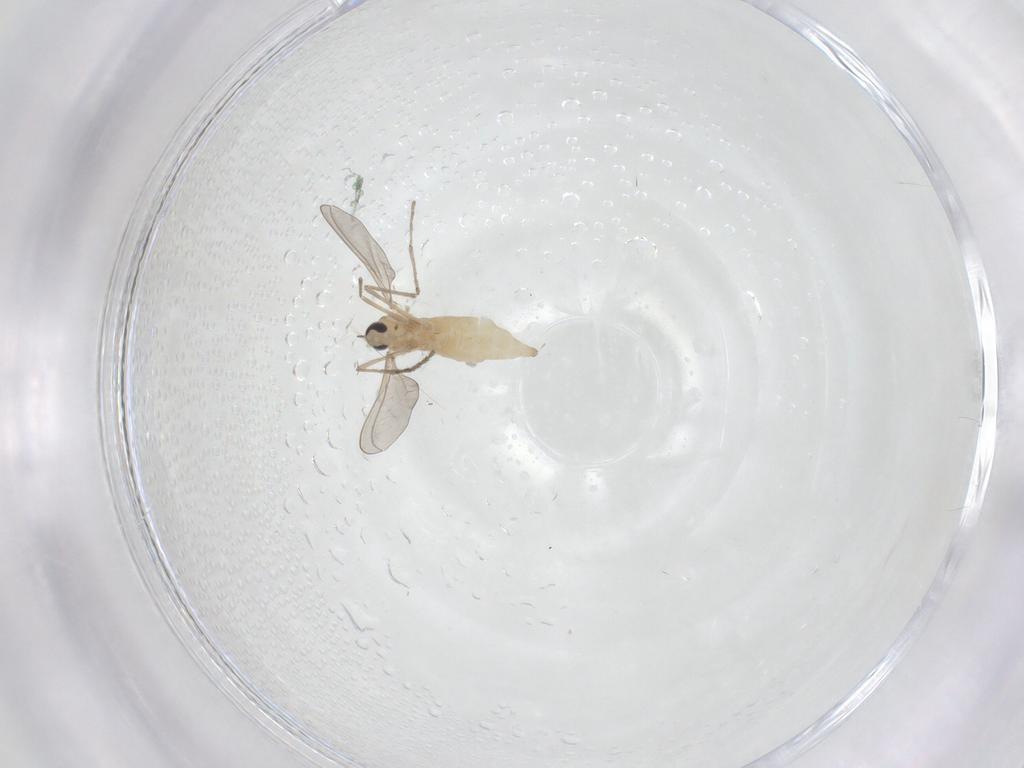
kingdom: Animalia
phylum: Arthropoda
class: Insecta
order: Diptera
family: Cecidomyiidae
